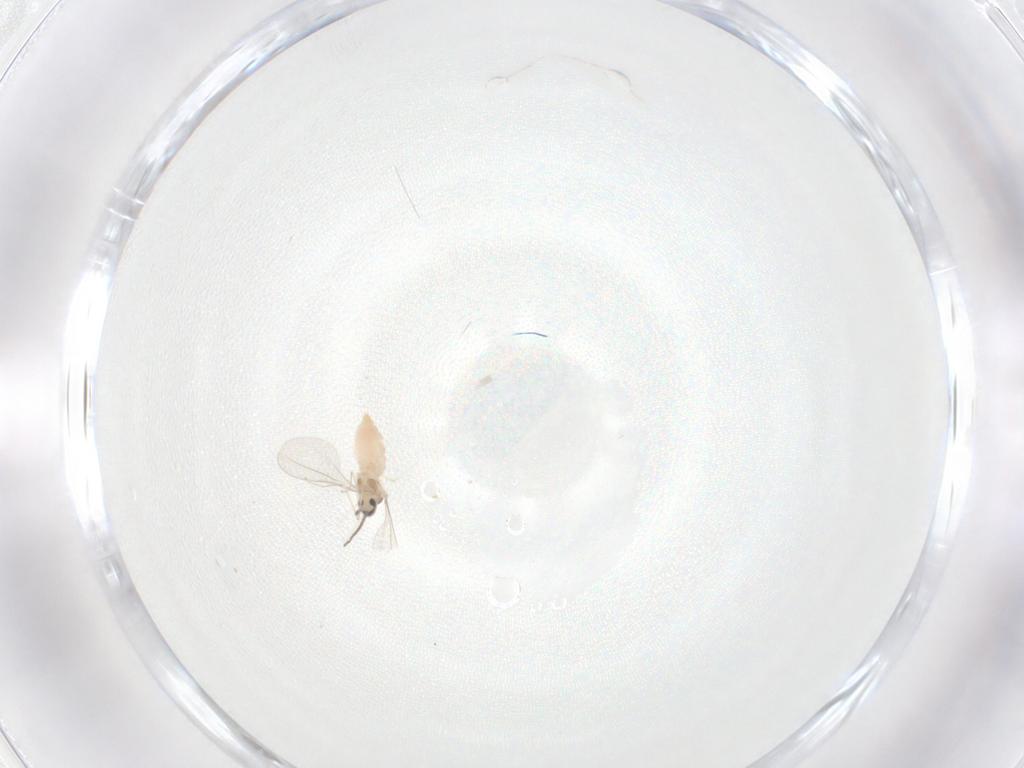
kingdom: Animalia
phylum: Arthropoda
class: Insecta
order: Diptera
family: Cecidomyiidae
